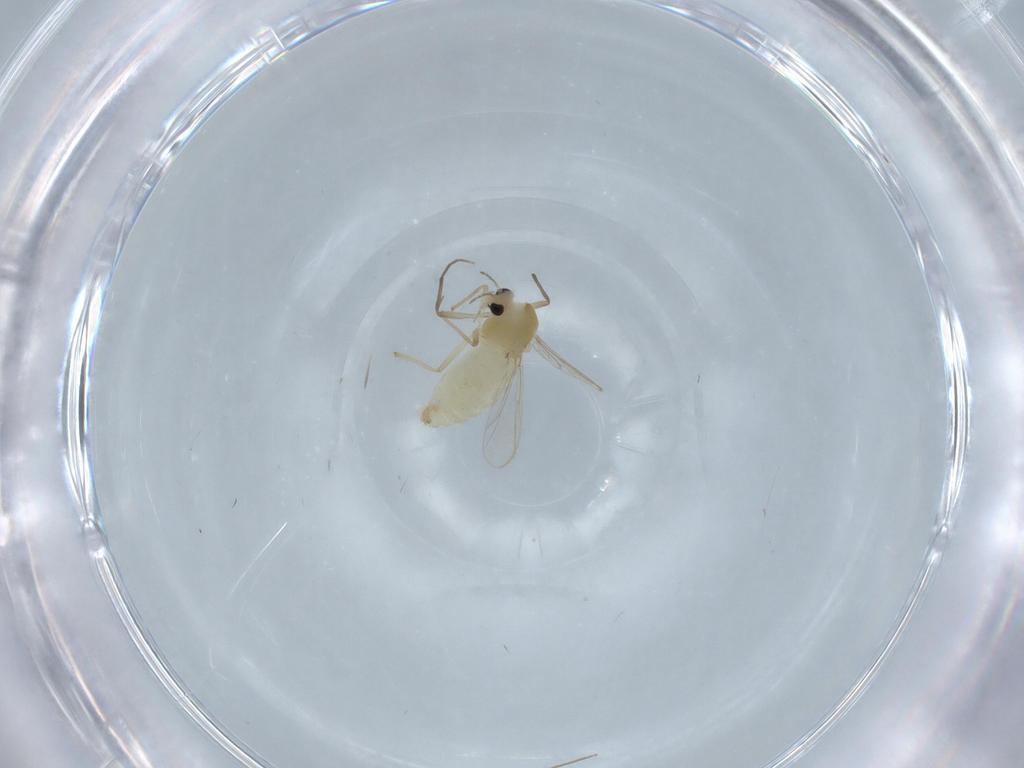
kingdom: Animalia
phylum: Arthropoda
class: Insecta
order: Diptera
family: Chironomidae
